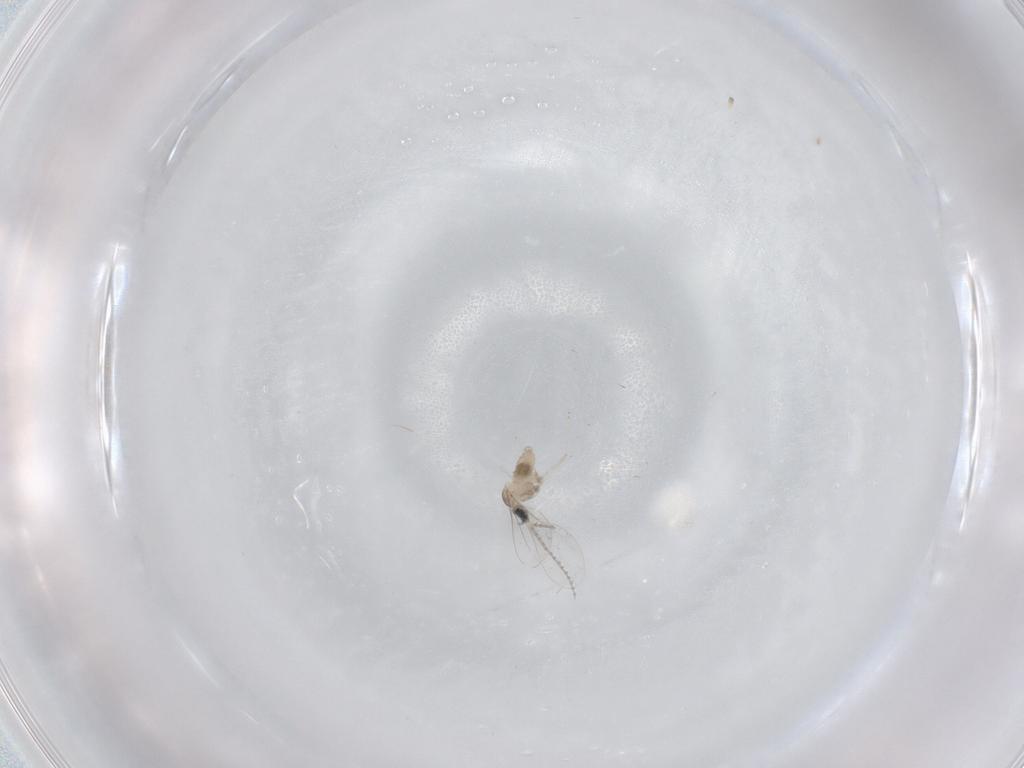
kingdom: Animalia
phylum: Arthropoda
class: Insecta
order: Diptera
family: Cecidomyiidae
